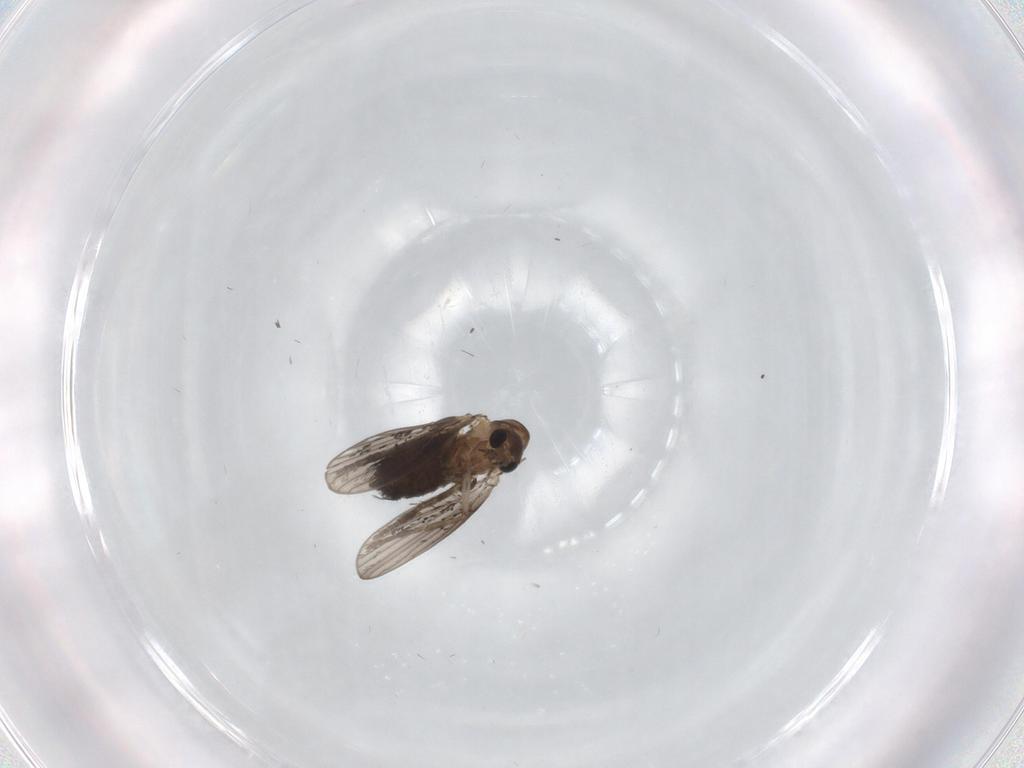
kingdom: Animalia
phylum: Arthropoda
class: Insecta
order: Diptera
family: Psychodidae
